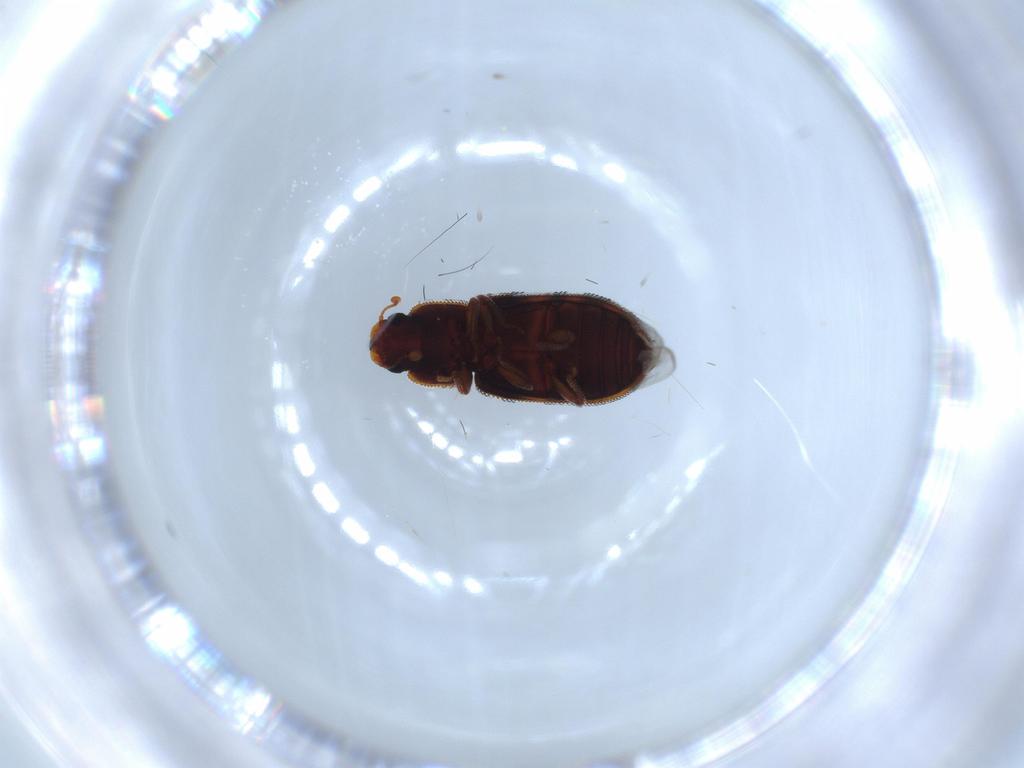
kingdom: Animalia
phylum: Arthropoda
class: Insecta
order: Coleoptera
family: Zopheridae
